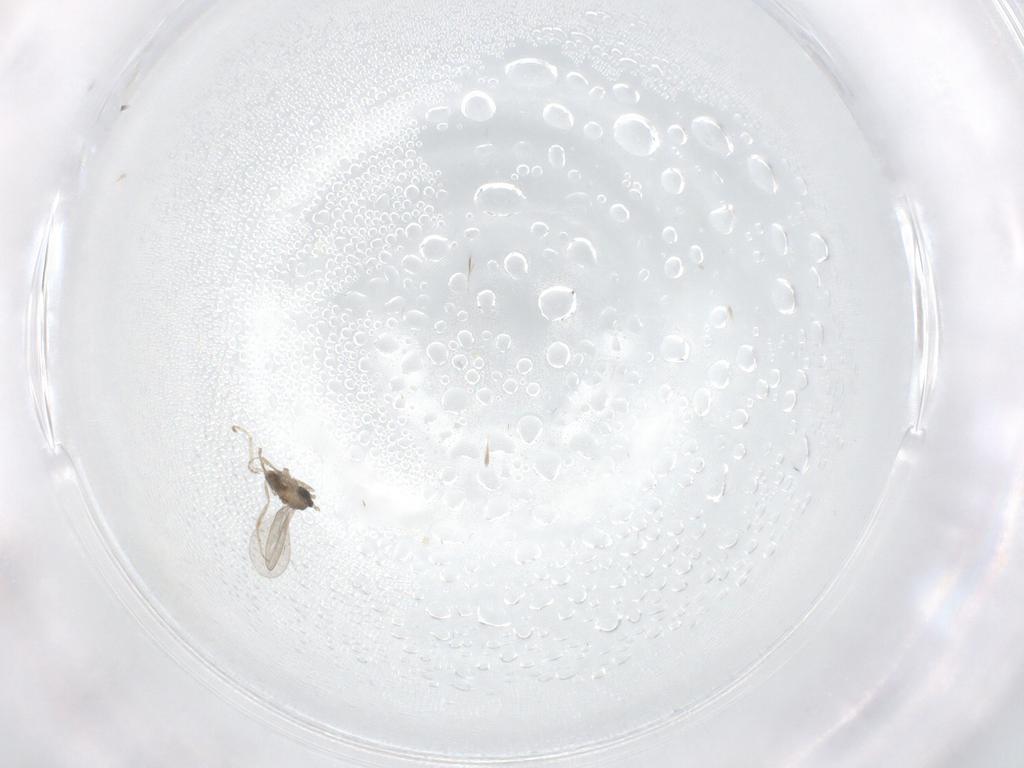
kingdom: Animalia
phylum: Arthropoda
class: Insecta
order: Diptera
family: Cecidomyiidae
